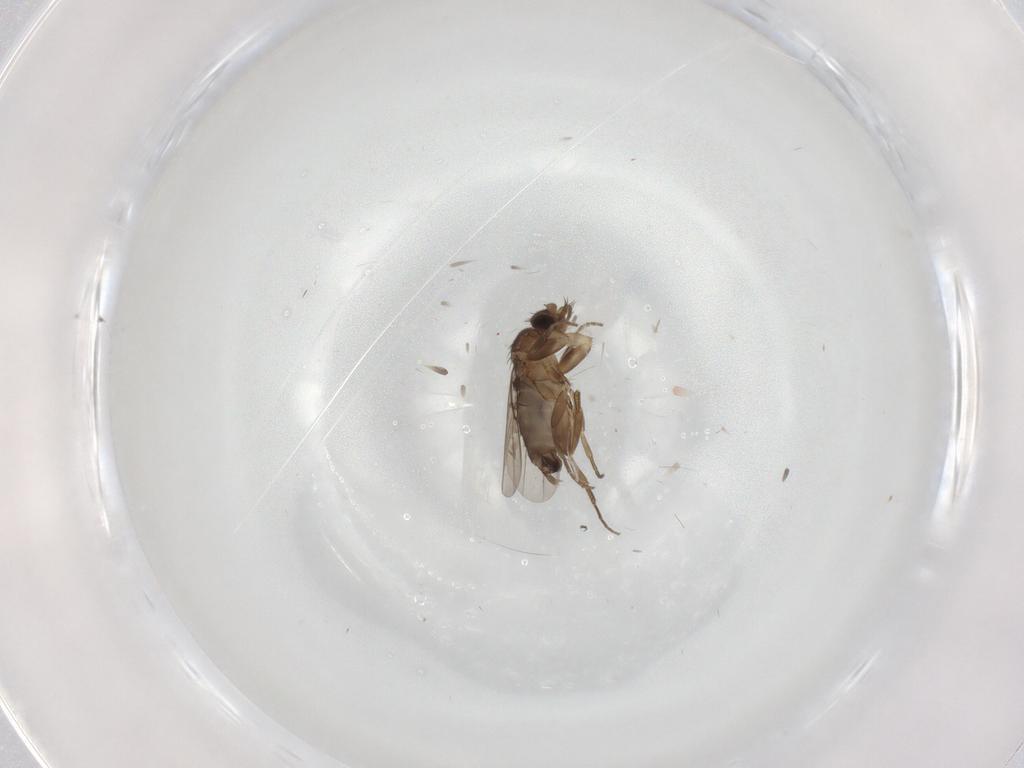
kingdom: Animalia
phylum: Arthropoda
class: Insecta
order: Diptera
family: Phoridae
